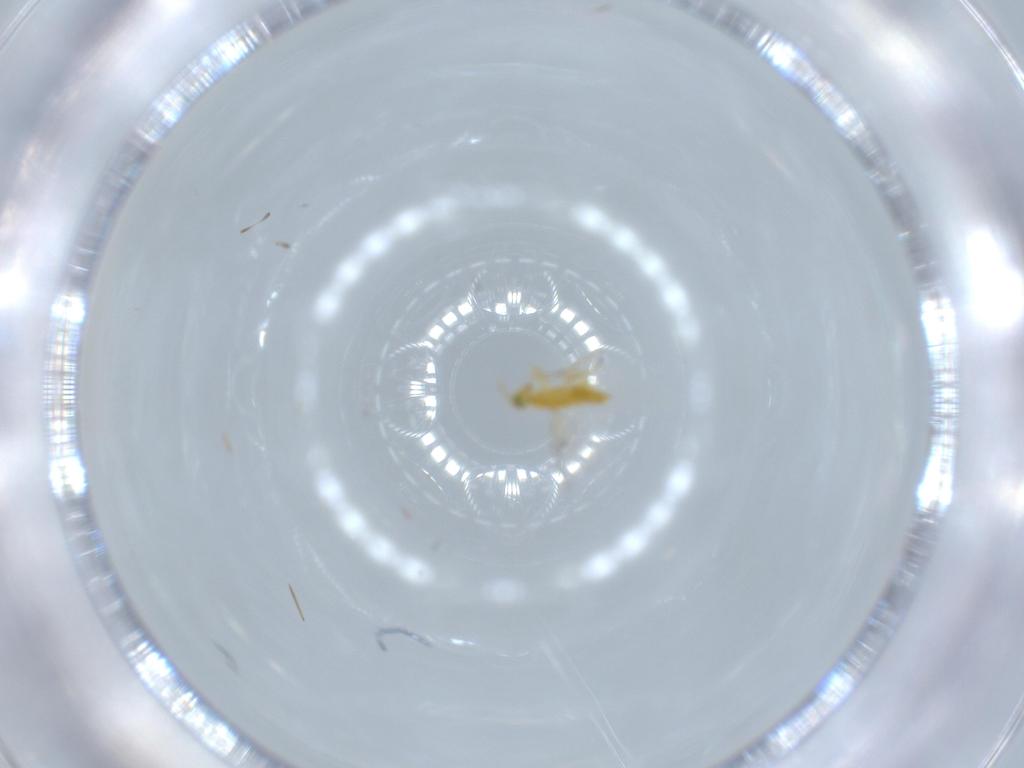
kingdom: Animalia
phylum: Arthropoda
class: Insecta
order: Hymenoptera
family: Aphelinidae
